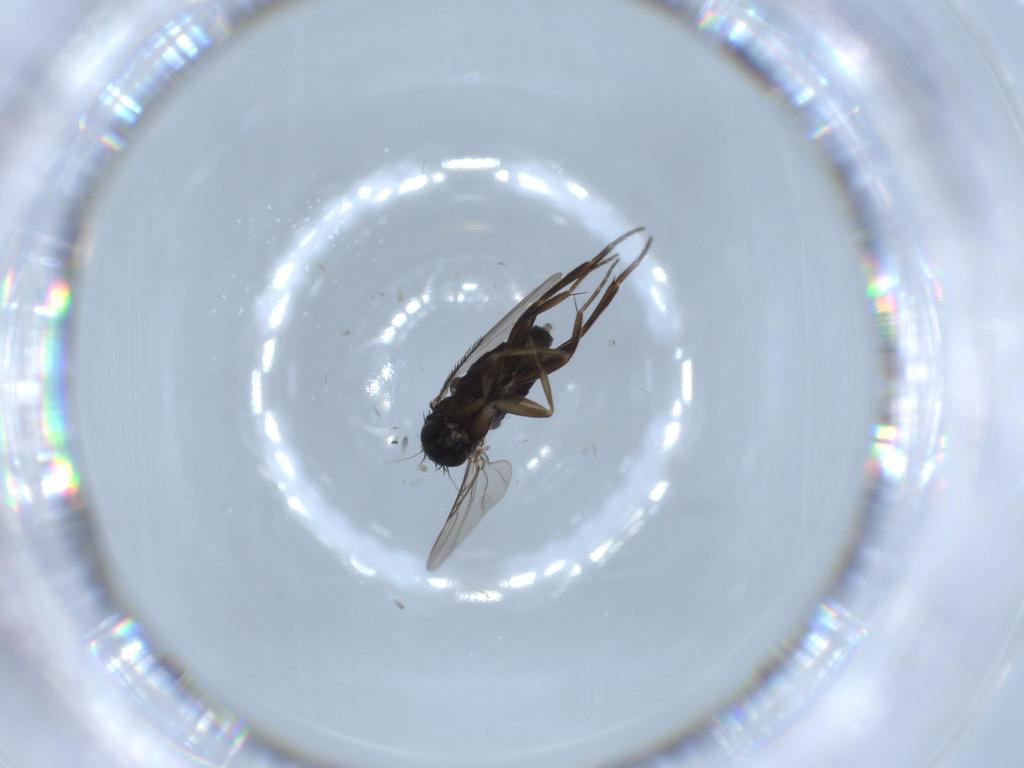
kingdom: Animalia
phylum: Arthropoda
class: Insecta
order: Diptera
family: Phoridae
